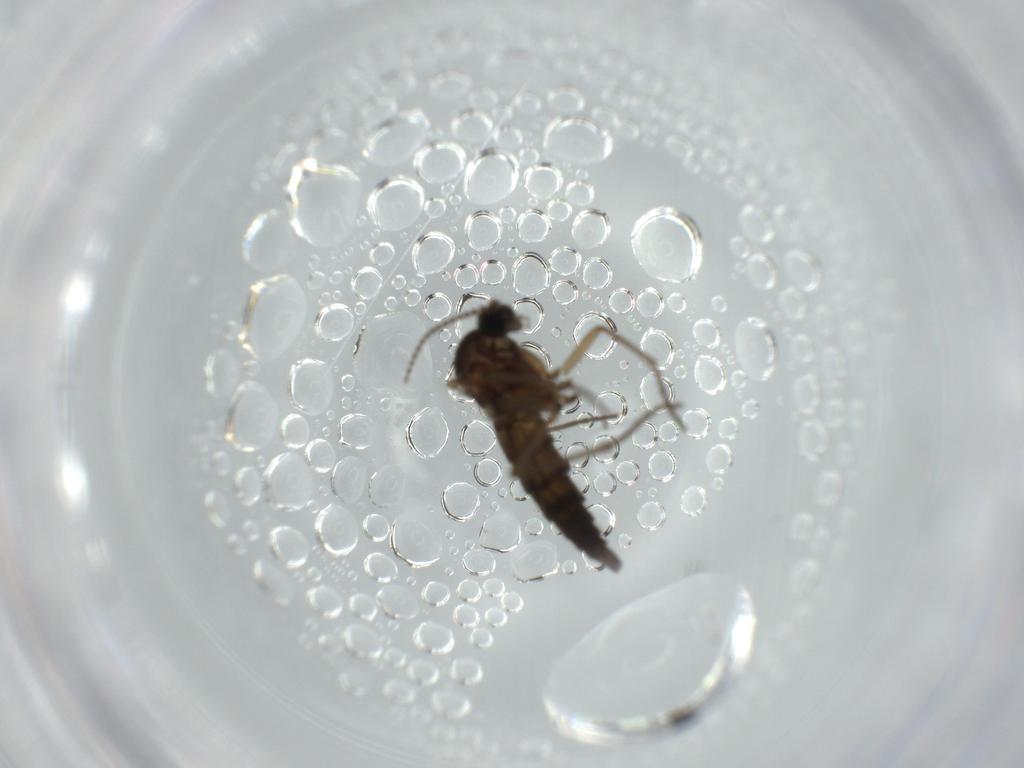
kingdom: Animalia
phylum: Arthropoda
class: Insecta
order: Diptera
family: Sciaridae
